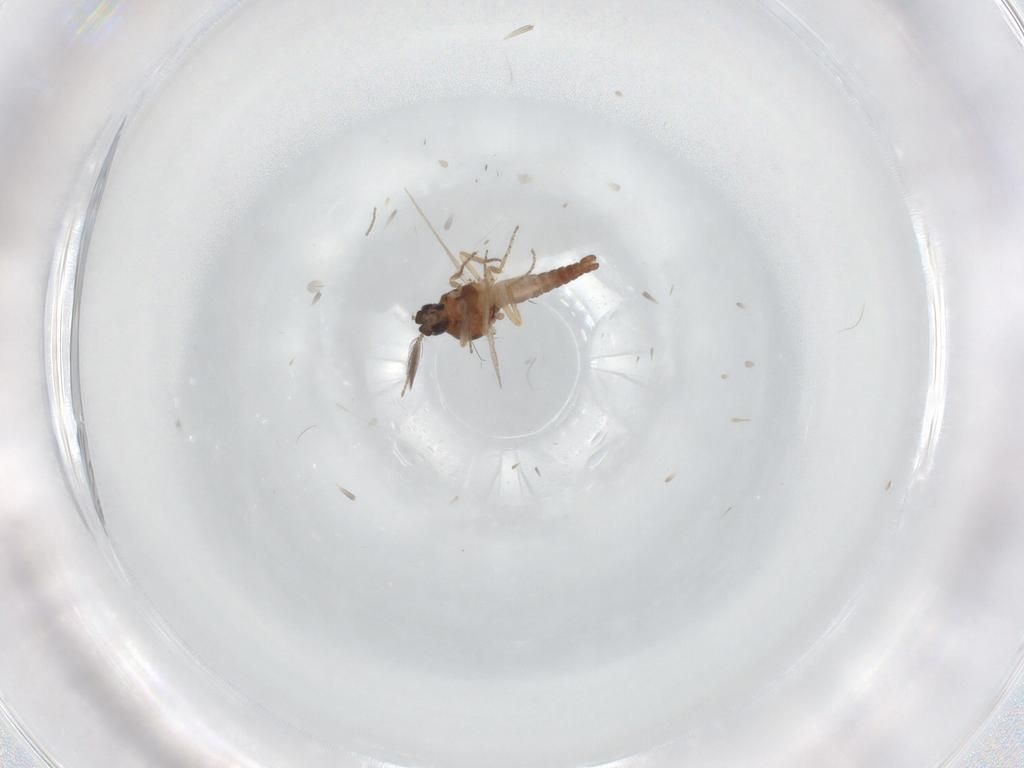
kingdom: Animalia
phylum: Arthropoda
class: Insecta
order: Diptera
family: Ceratopogonidae
